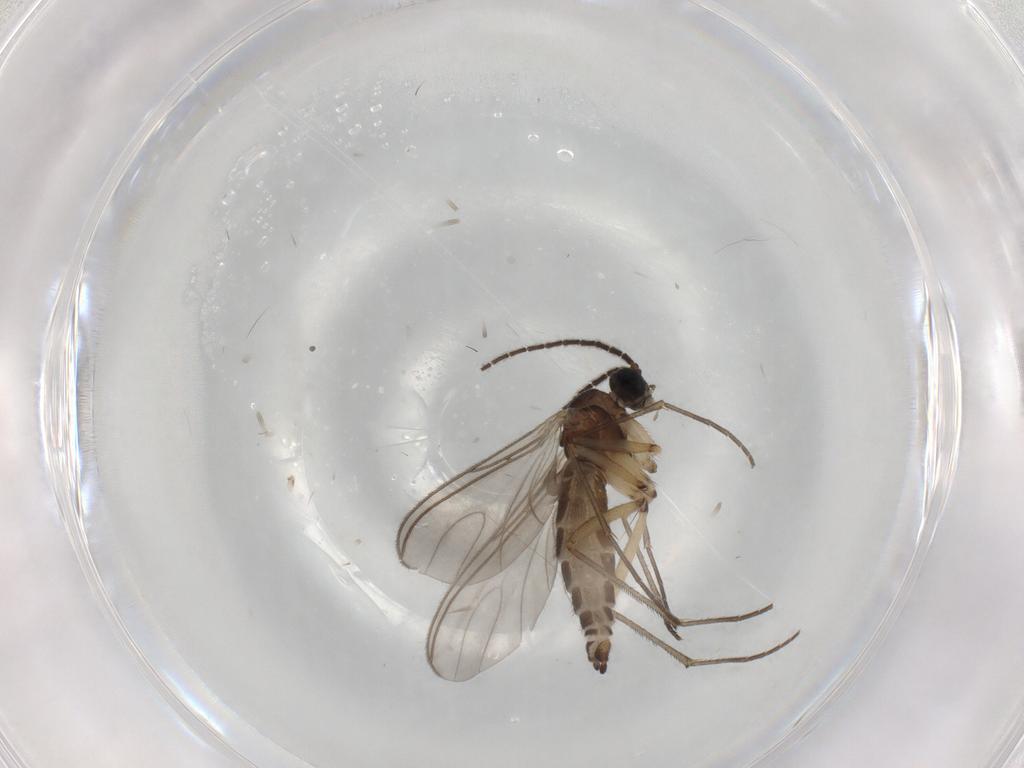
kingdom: Animalia
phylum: Arthropoda
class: Insecta
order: Diptera
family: Sciaridae
